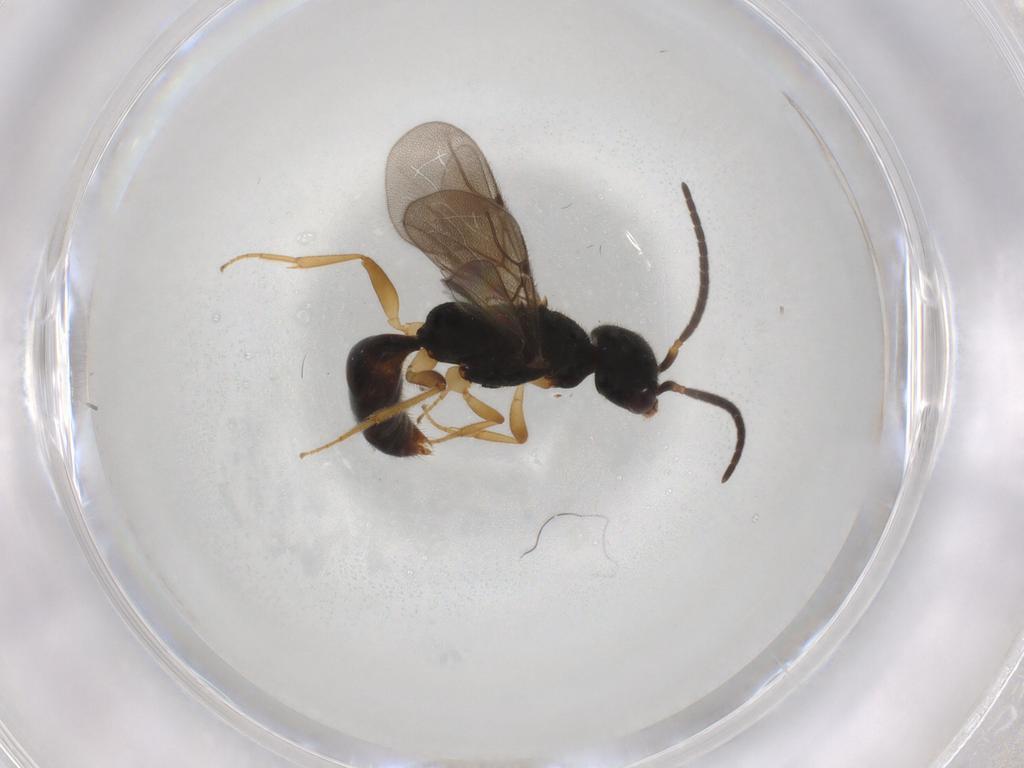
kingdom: Animalia
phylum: Arthropoda
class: Insecta
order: Hymenoptera
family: Bethylidae
